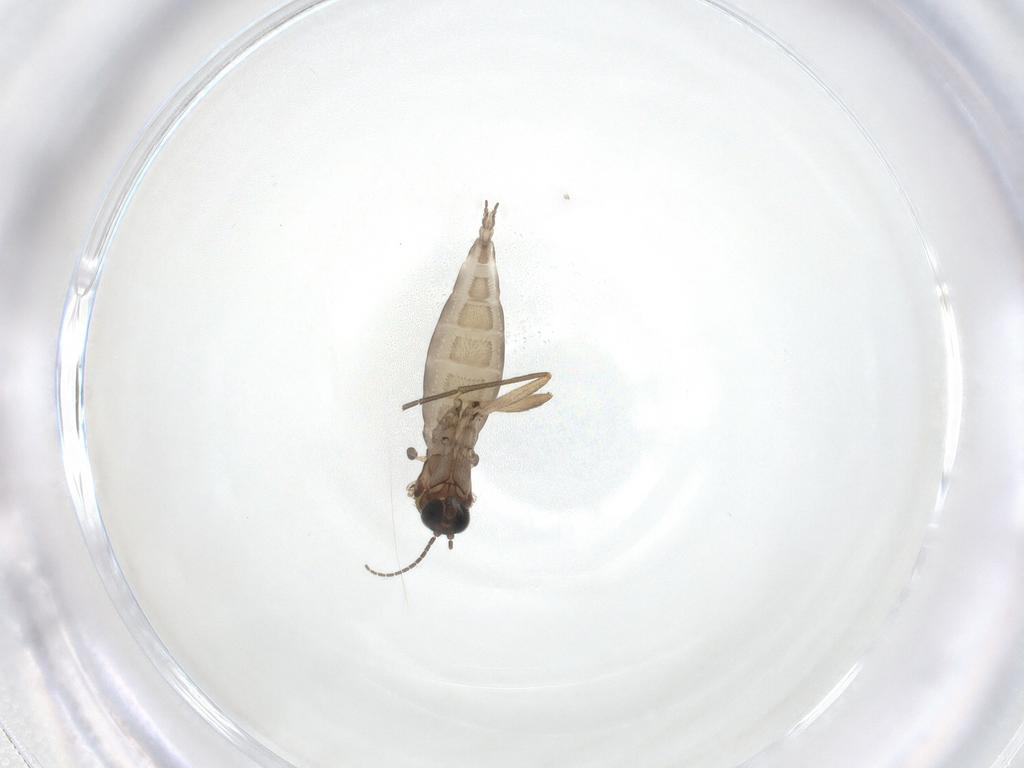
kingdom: Animalia
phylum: Arthropoda
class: Insecta
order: Diptera
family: Sciaridae
